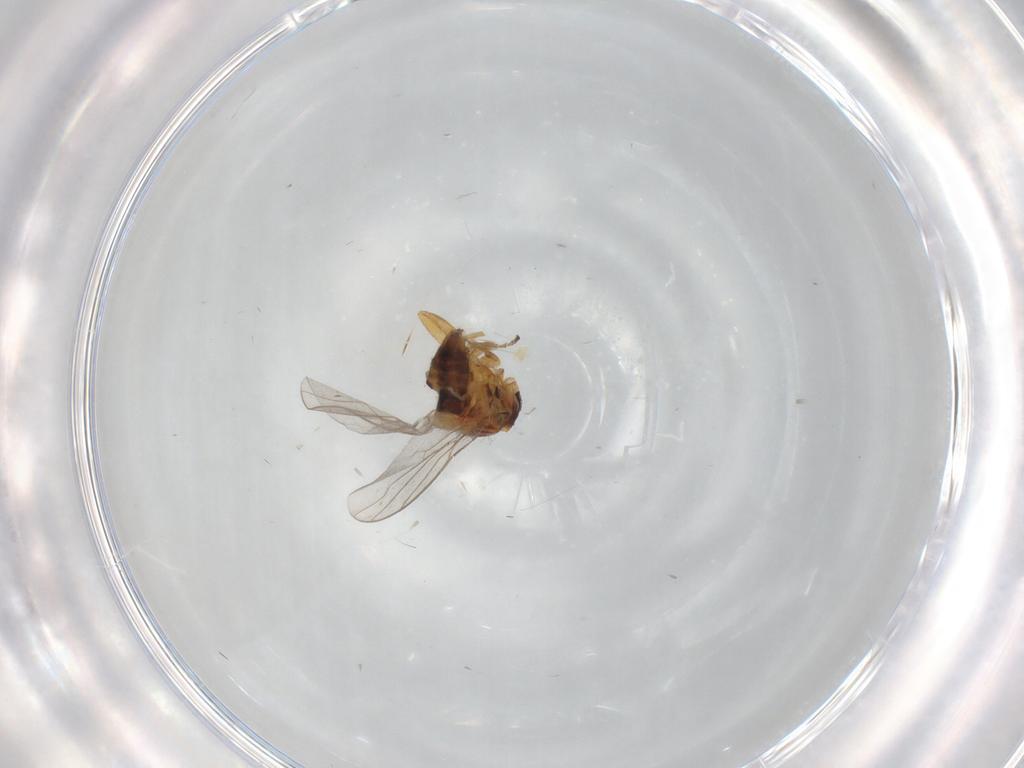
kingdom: Animalia
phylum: Arthropoda
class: Insecta
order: Diptera
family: Chloropidae
